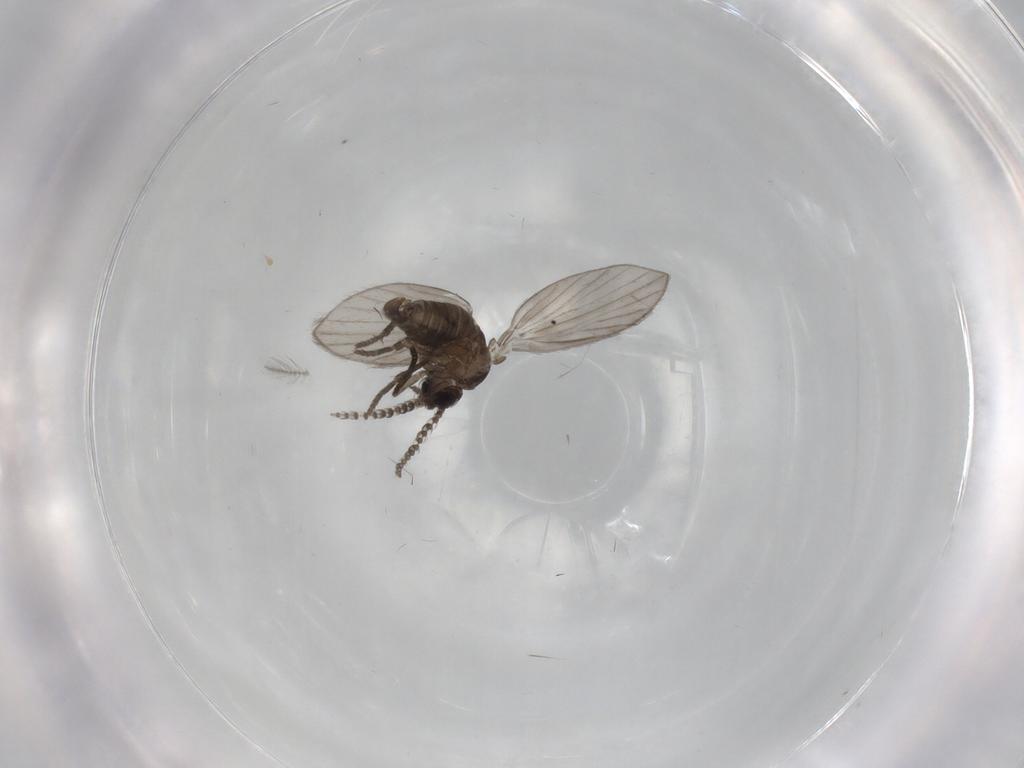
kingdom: Animalia
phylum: Arthropoda
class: Insecta
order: Diptera
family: Psychodidae
